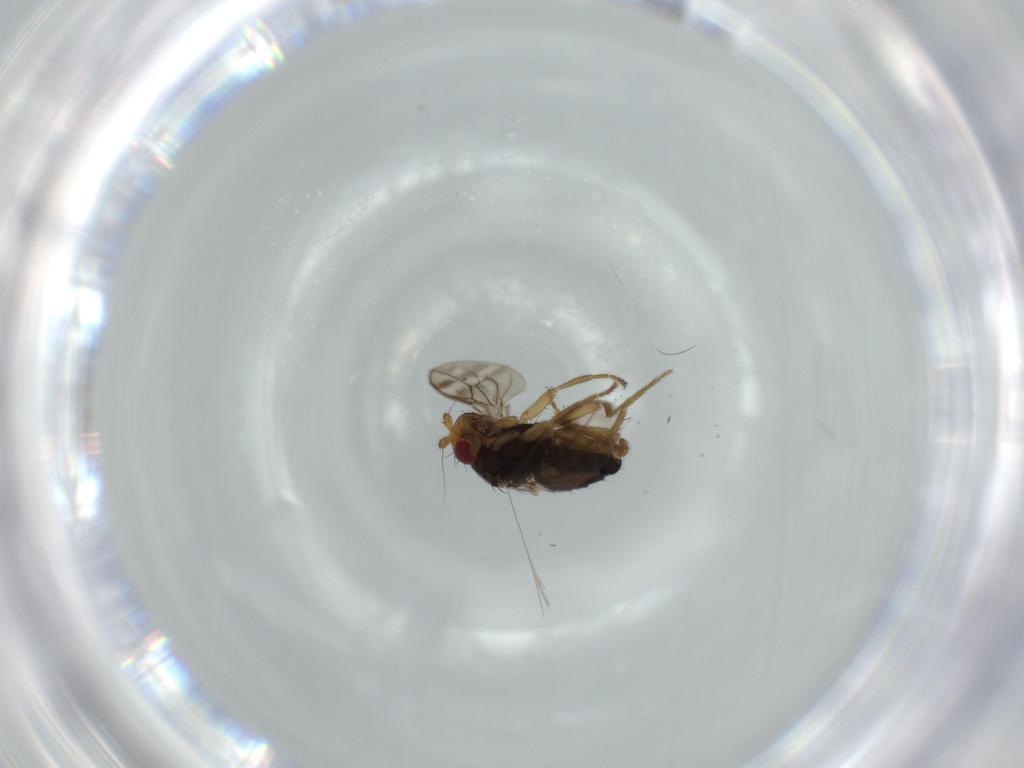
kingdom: Animalia
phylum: Arthropoda
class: Insecta
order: Diptera
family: Sphaeroceridae
